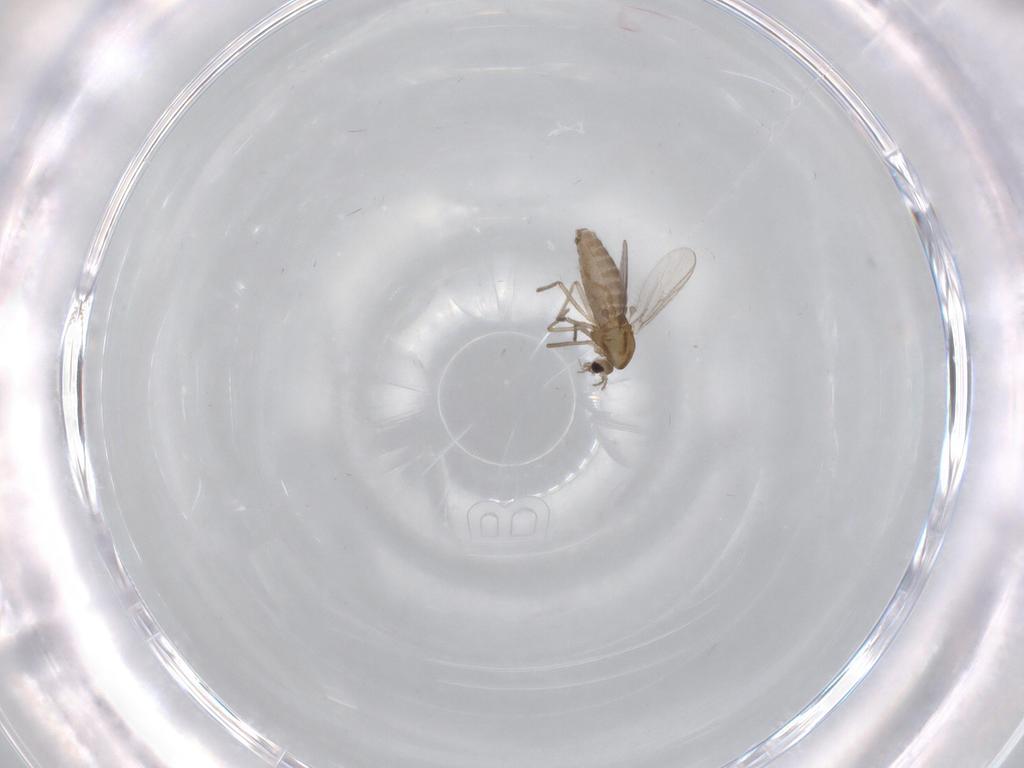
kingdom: Animalia
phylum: Arthropoda
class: Insecta
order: Diptera
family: Chironomidae
